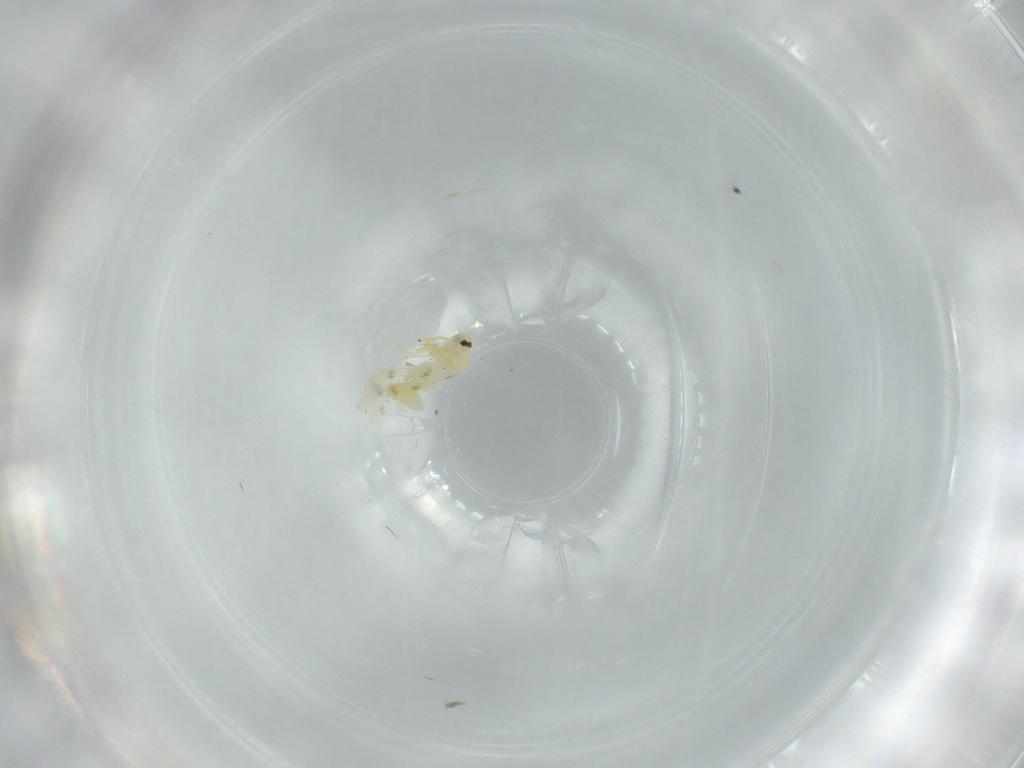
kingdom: Animalia
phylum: Arthropoda
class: Insecta
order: Hemiptera
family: Aleyrodidae
